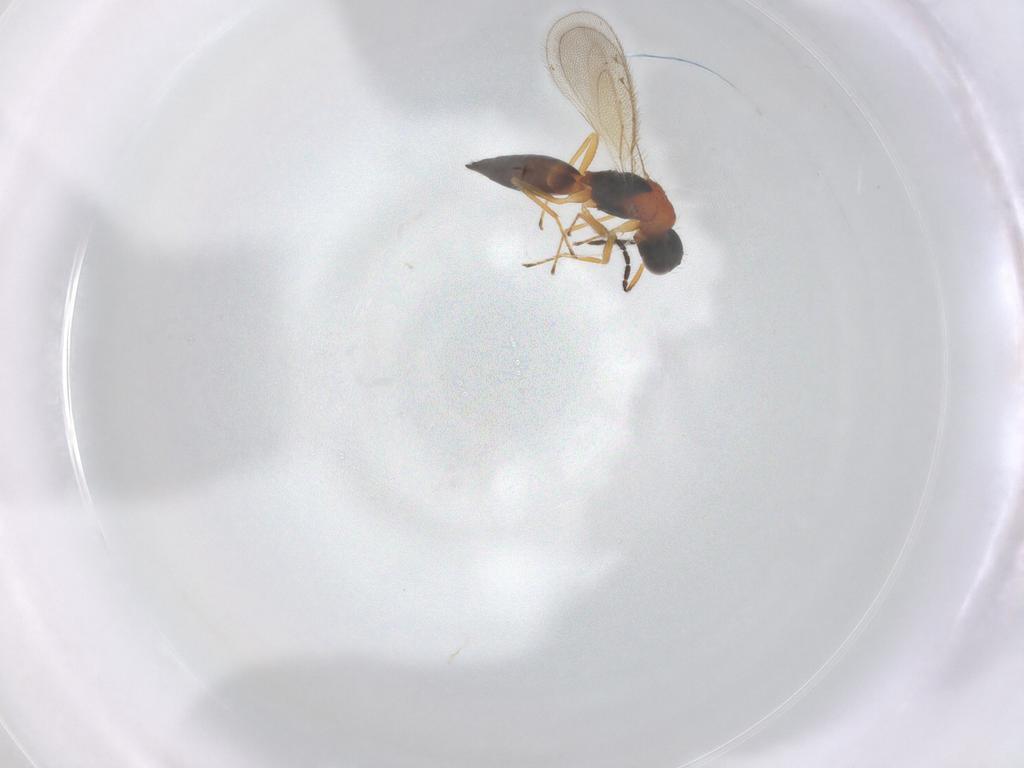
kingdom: Animalia
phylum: Arthropoda
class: Insecta
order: Hymenoptera
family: Eulophidae
